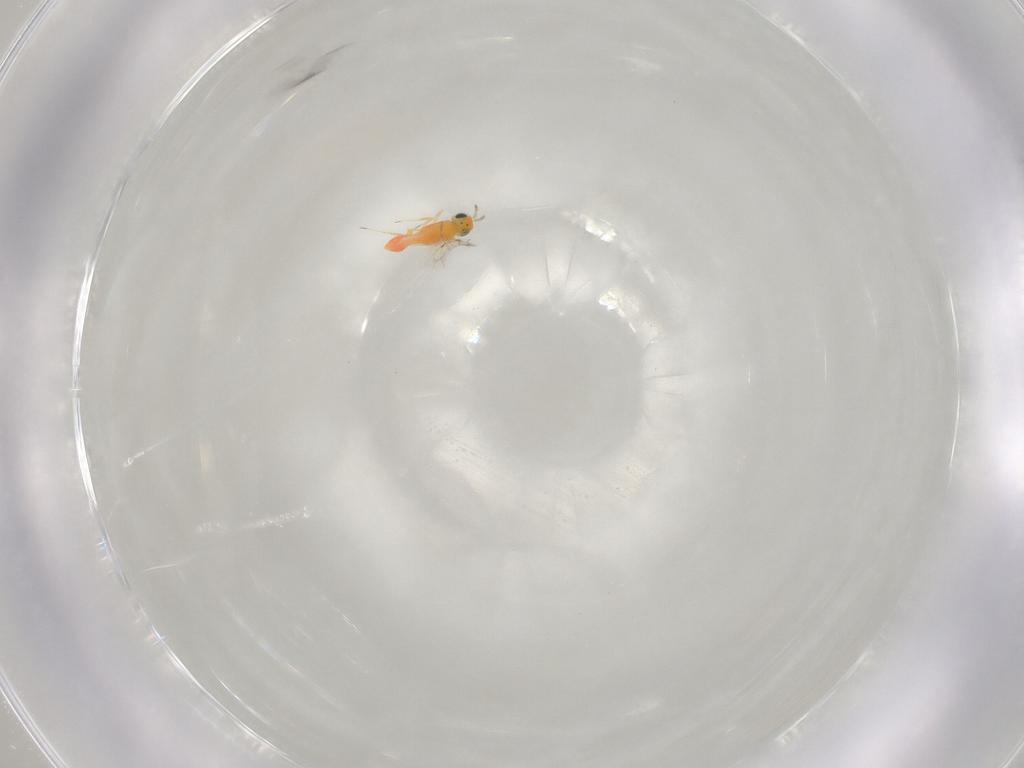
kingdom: Animalia
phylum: Arthropoda
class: Insecta
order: Hymenoptera
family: Trichogrammatidae
